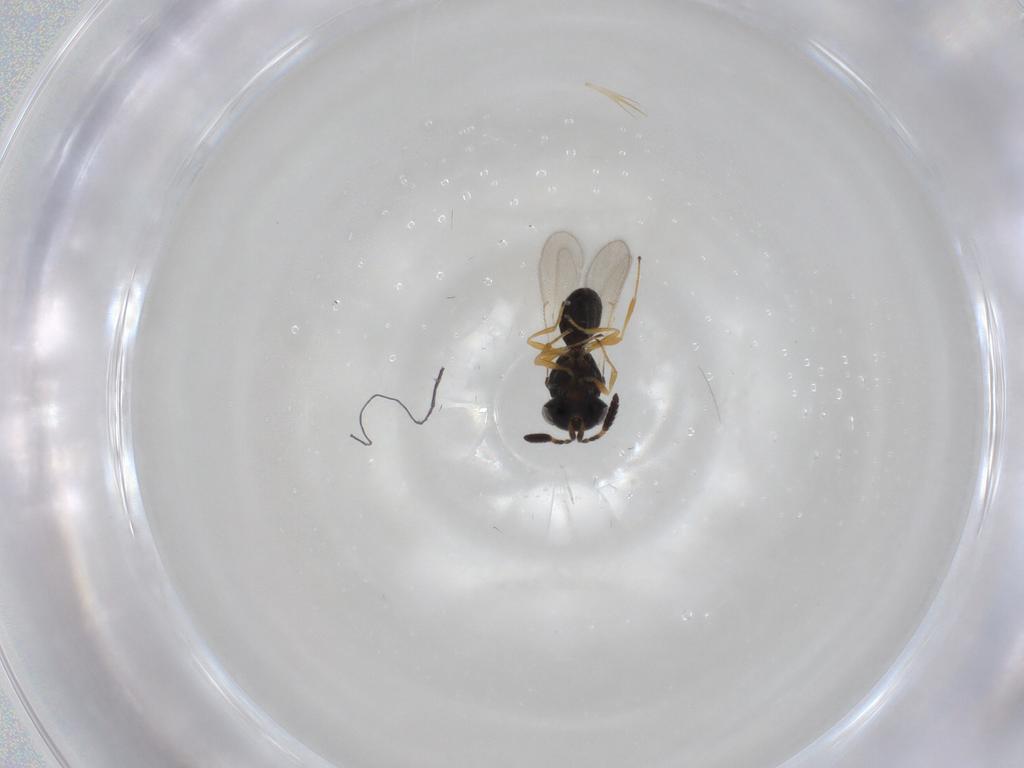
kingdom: Animalia
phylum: Arthropoda
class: Insecta
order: Hymenoptera
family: Scelionidae
